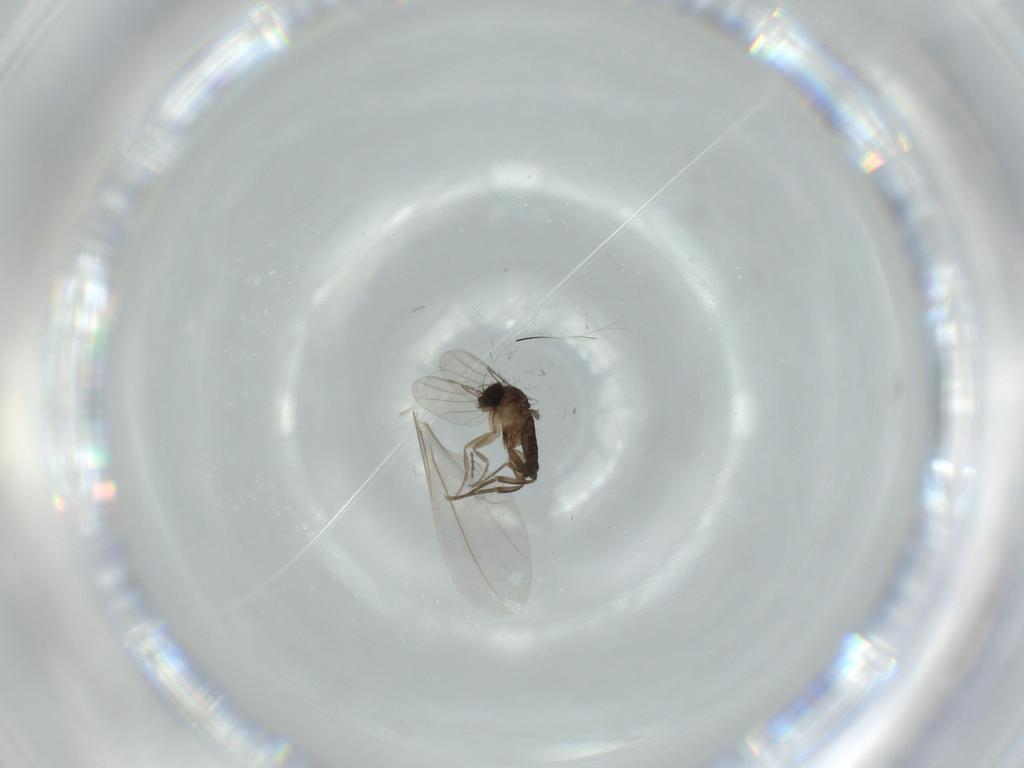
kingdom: Animalia
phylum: Arthropoda
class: Insecta
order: Diptera
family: Phoridae
